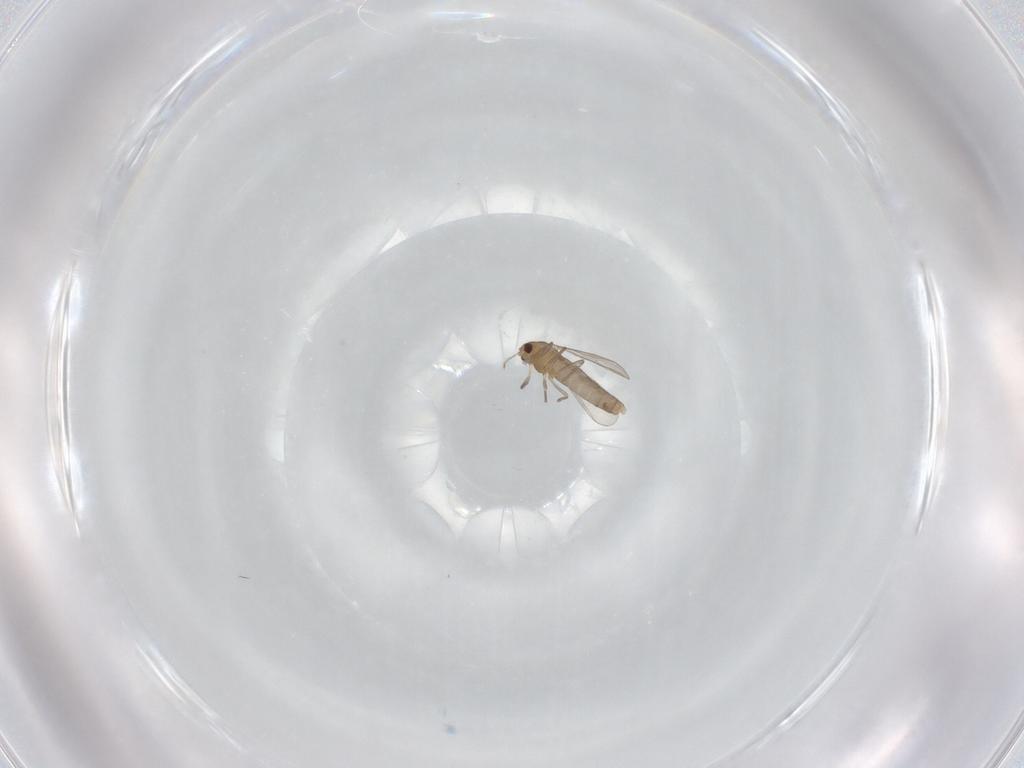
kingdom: Animalia
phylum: Arthropoda
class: Insecta
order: Diptera
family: Chironomidae
